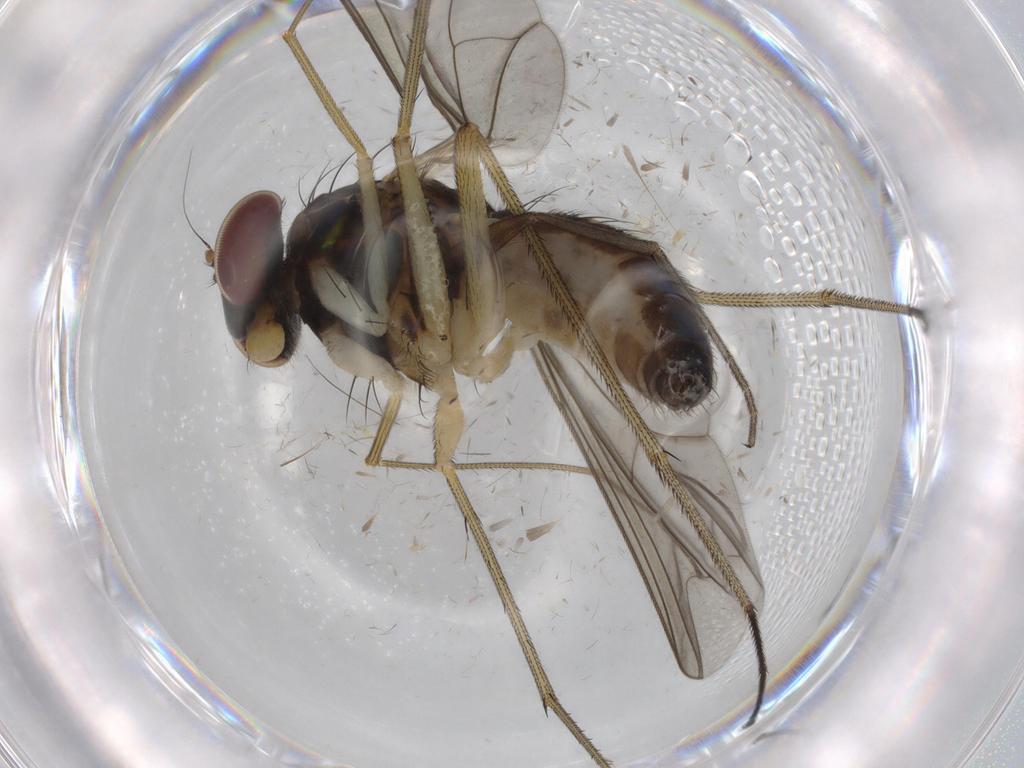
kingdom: Animalia
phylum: Arthropoda
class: Insecta
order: Diptera
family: Dolichopodidae
